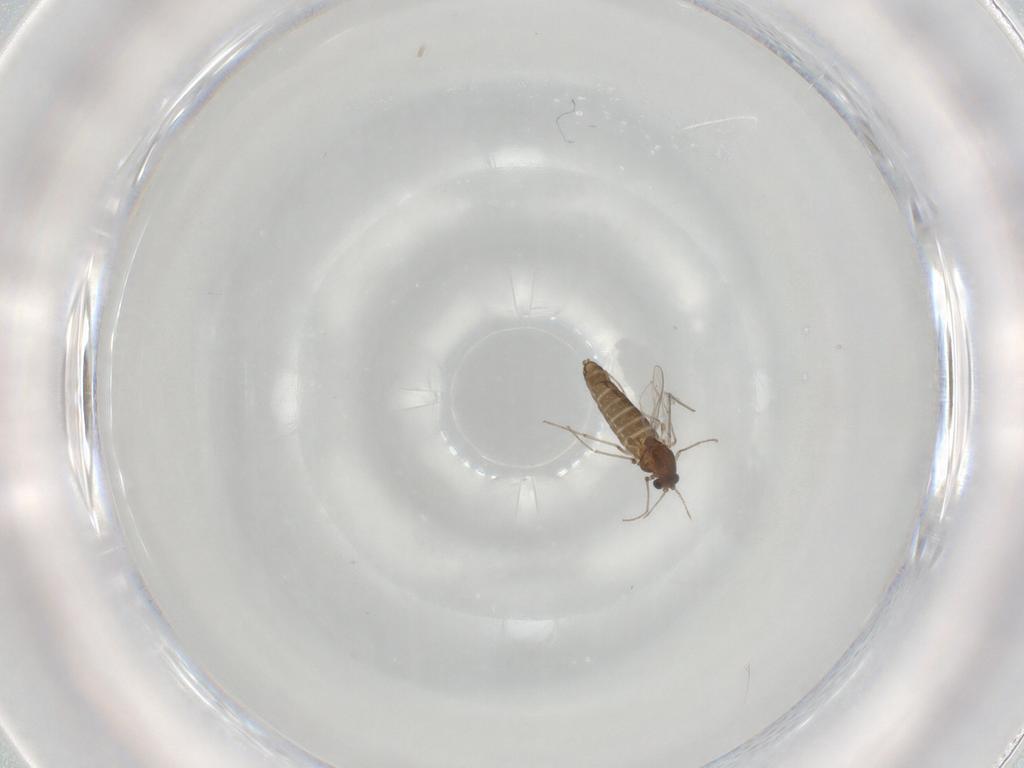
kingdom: Animalia
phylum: Arthropoda
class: Insecta
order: Diptera
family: Chironomidae
